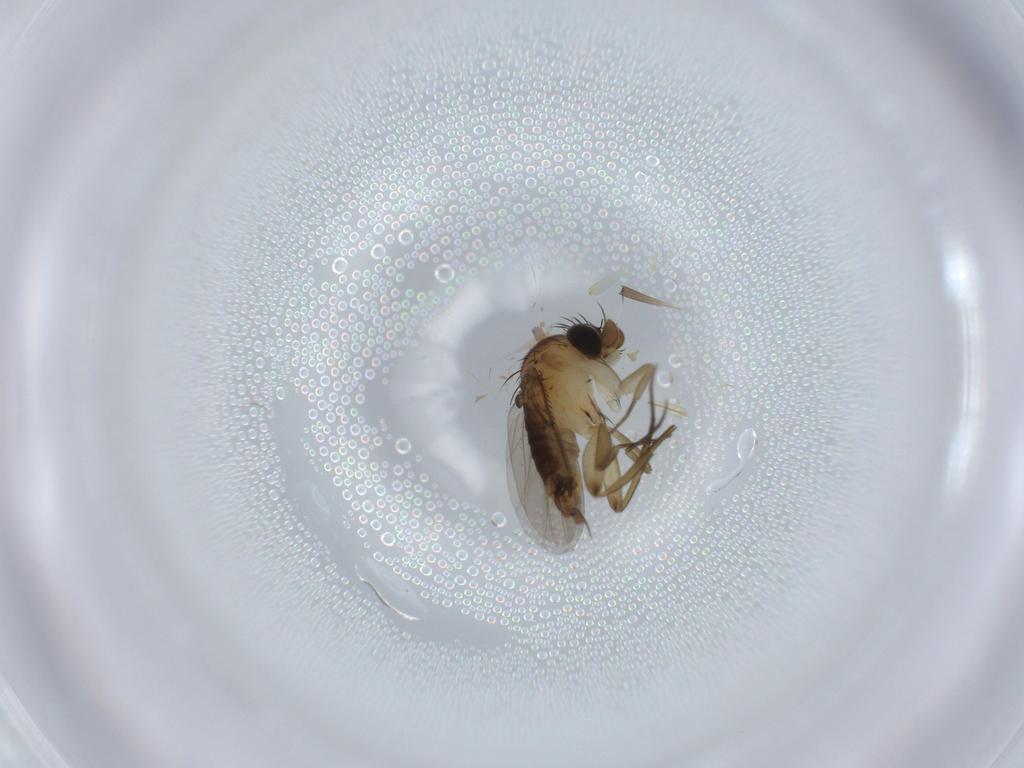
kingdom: Animalia
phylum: Arthropoda
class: Insecta
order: Diptera
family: Phoridae
